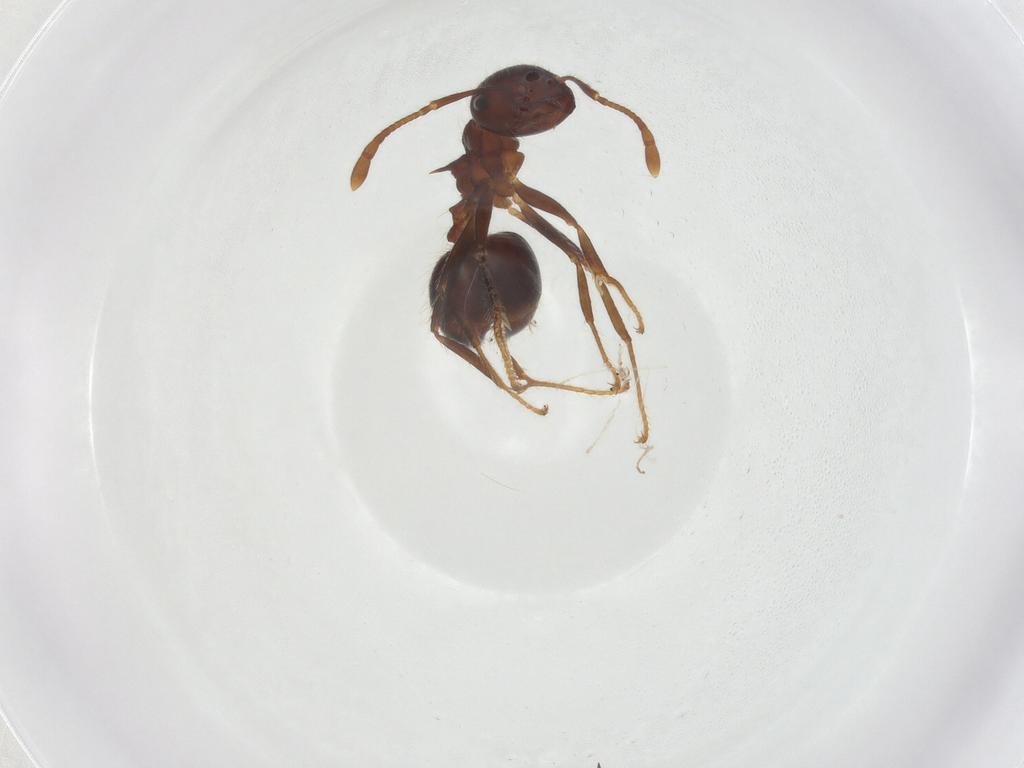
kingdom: Animalia
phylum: Arthropoda
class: Insecta
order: Hymenoptera
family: Formicidae
